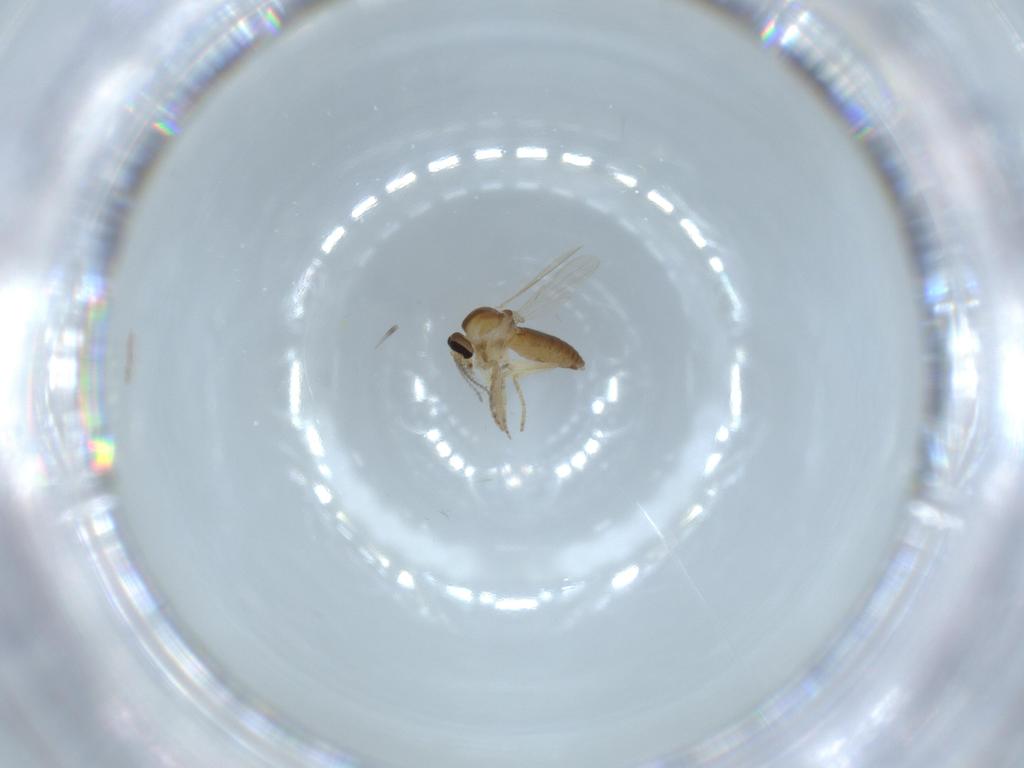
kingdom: Animalia
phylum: Arthropoda
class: Insecta
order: Diptera
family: Ceratopogonidae
